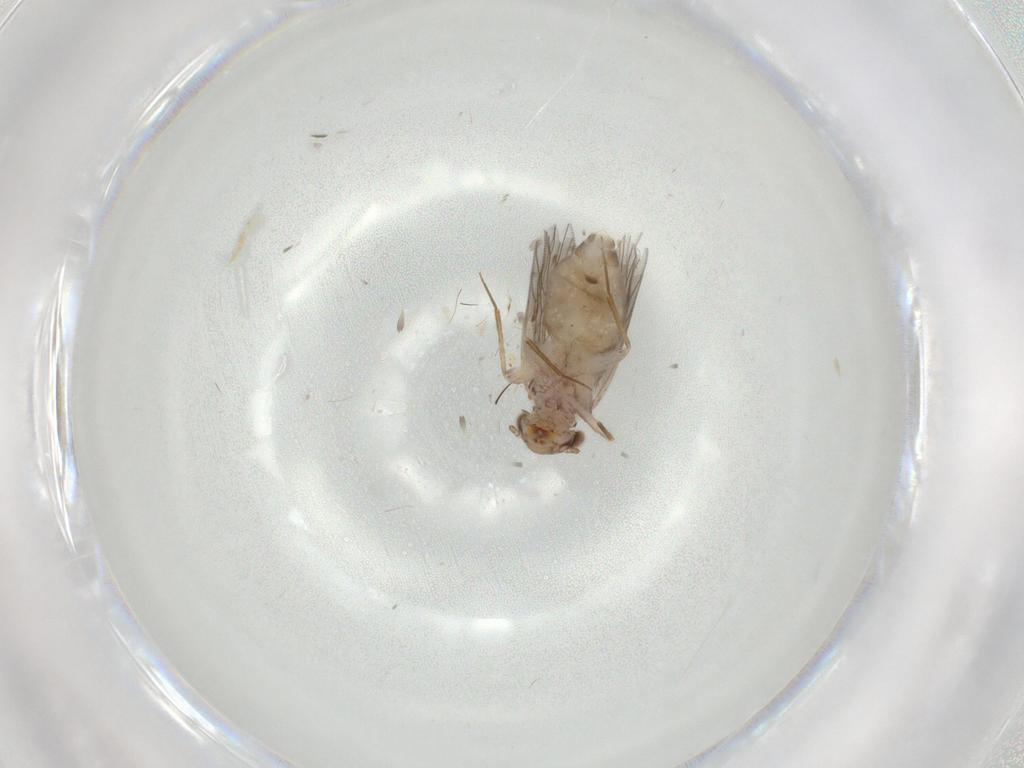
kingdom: Animalia
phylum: Arthropoda
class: Insecta
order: Psocodea
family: Lepidopsocidae
